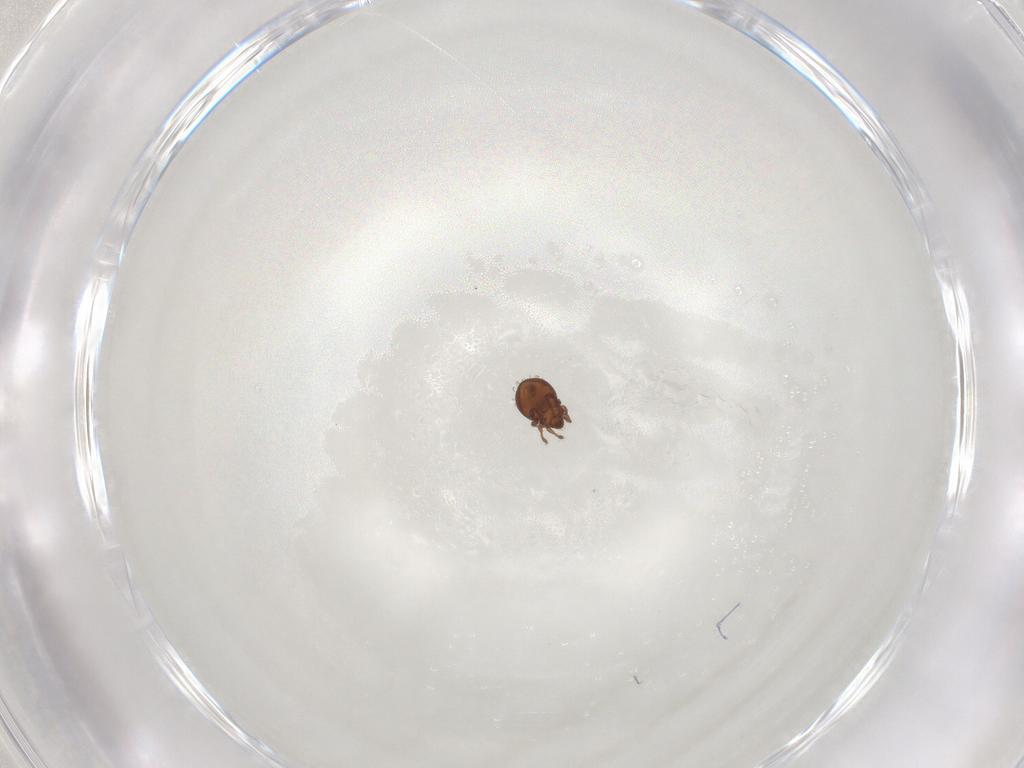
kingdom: Animalia
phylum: Arthropoda
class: Arachnida
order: Sarcoptiformes
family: Scheloribatidae
